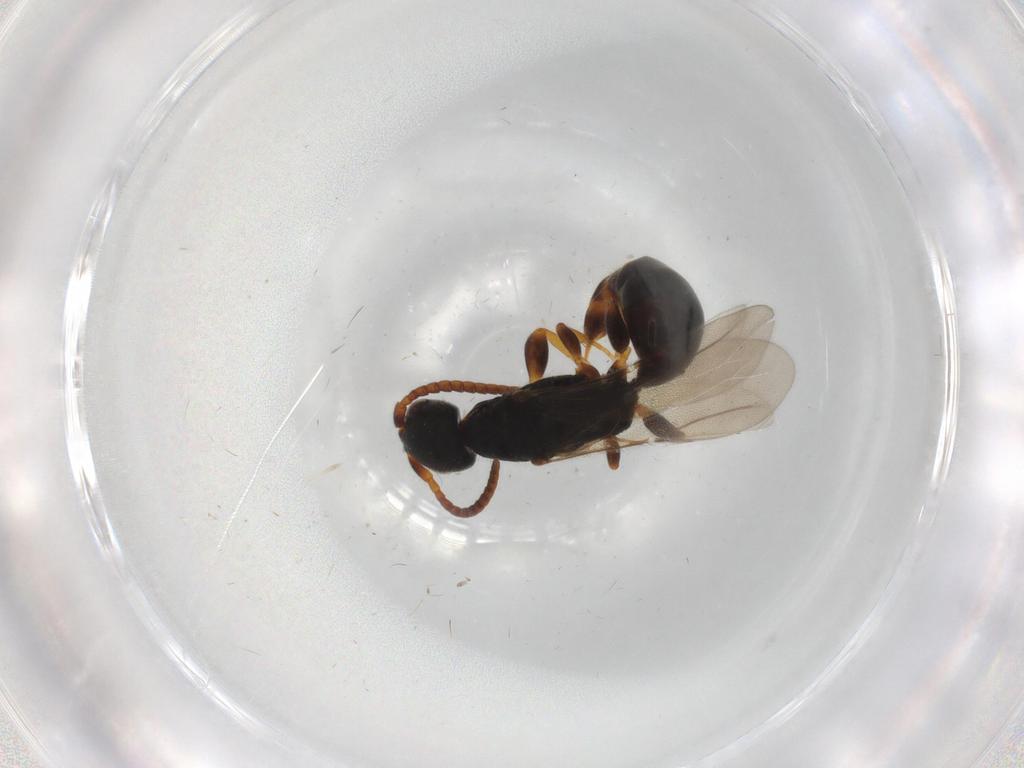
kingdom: Animalia
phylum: Arthropoda
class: Insecta
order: Hymenoptera
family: Bethylidae
